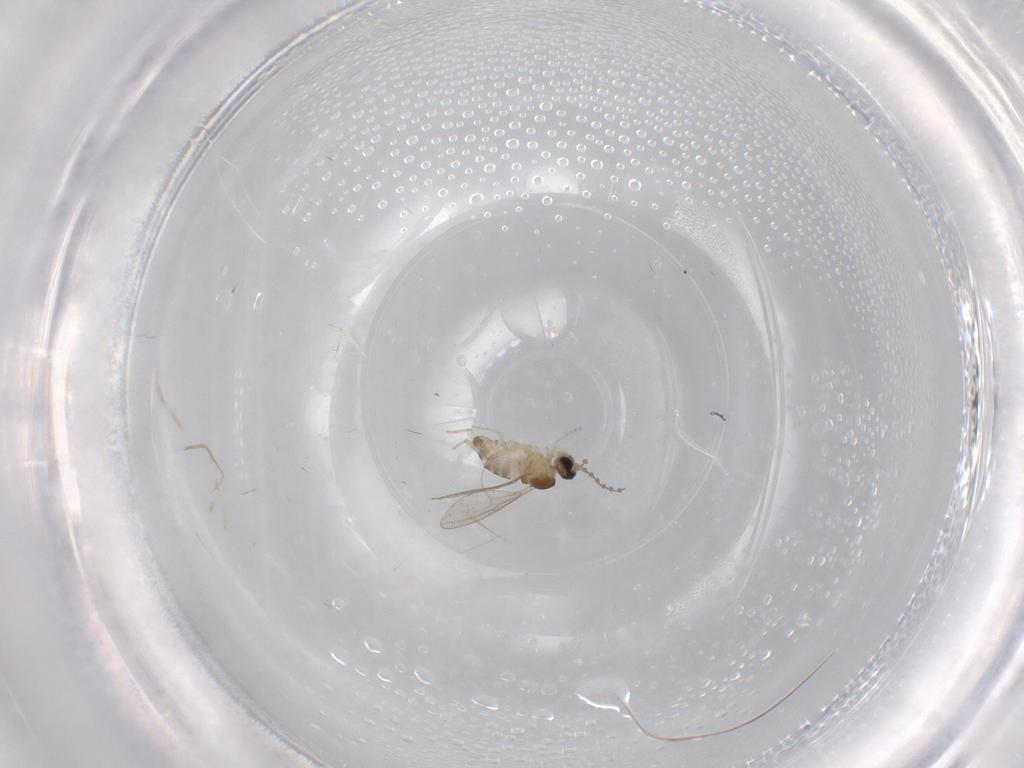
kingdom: Animalia
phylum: Arthropoda
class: Insecta
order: Diptera
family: Cecidomyiidae
